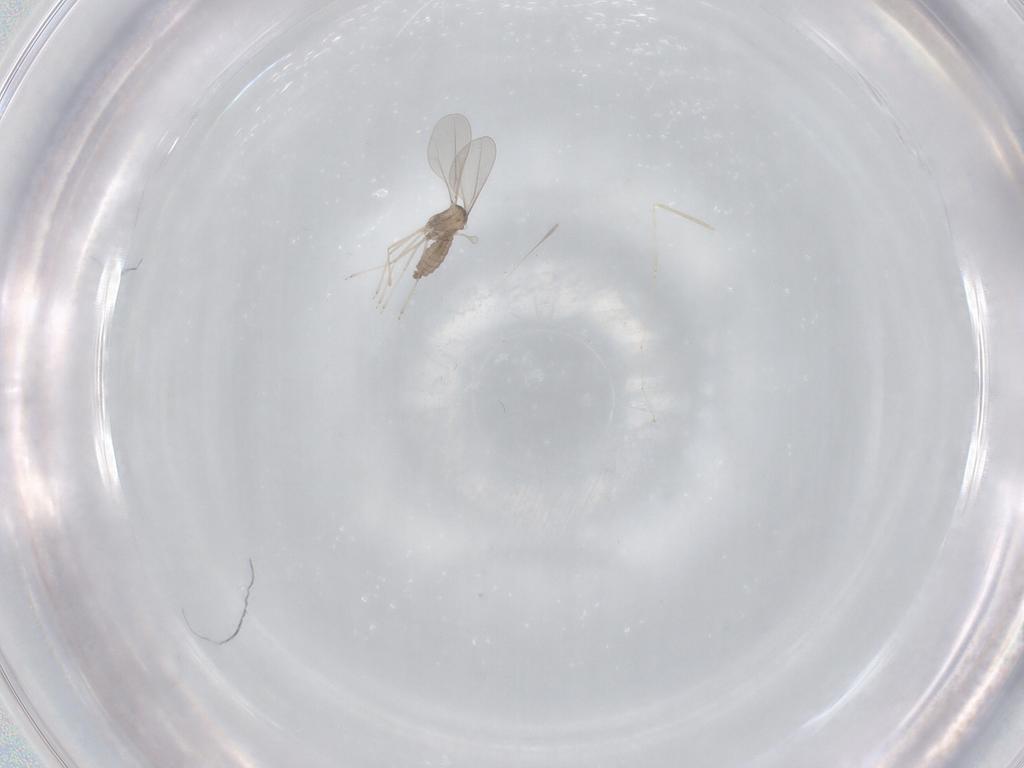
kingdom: Animalia
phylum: Arthropoda
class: Insecta
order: Diptera
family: Cecidomyiidae
